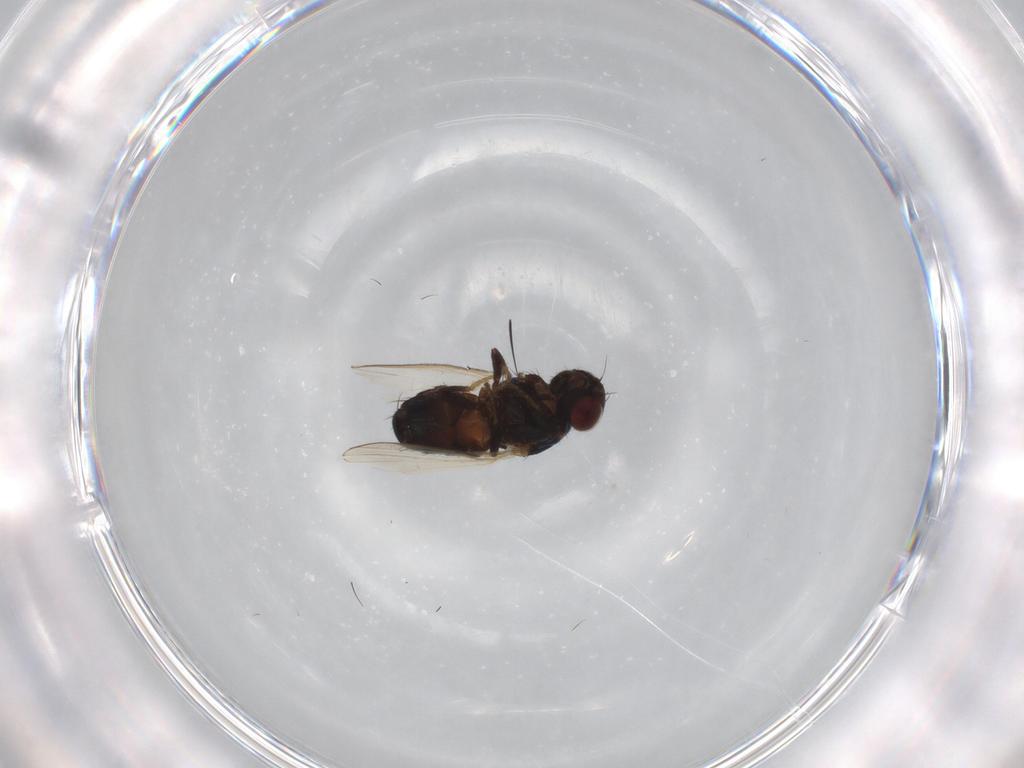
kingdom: Animalia
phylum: Arthropoda
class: Insecta
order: Diptera
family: Carnidae
